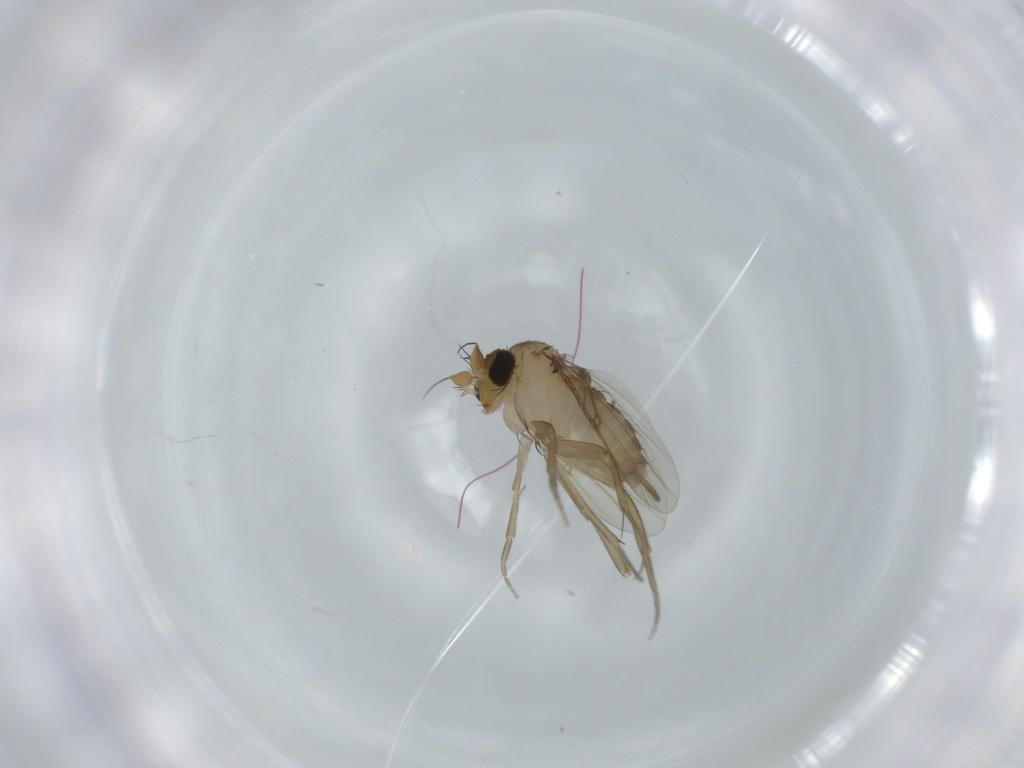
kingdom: Animalia
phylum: Arthropoda
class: Insecta
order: Diptera
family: Phoridae
